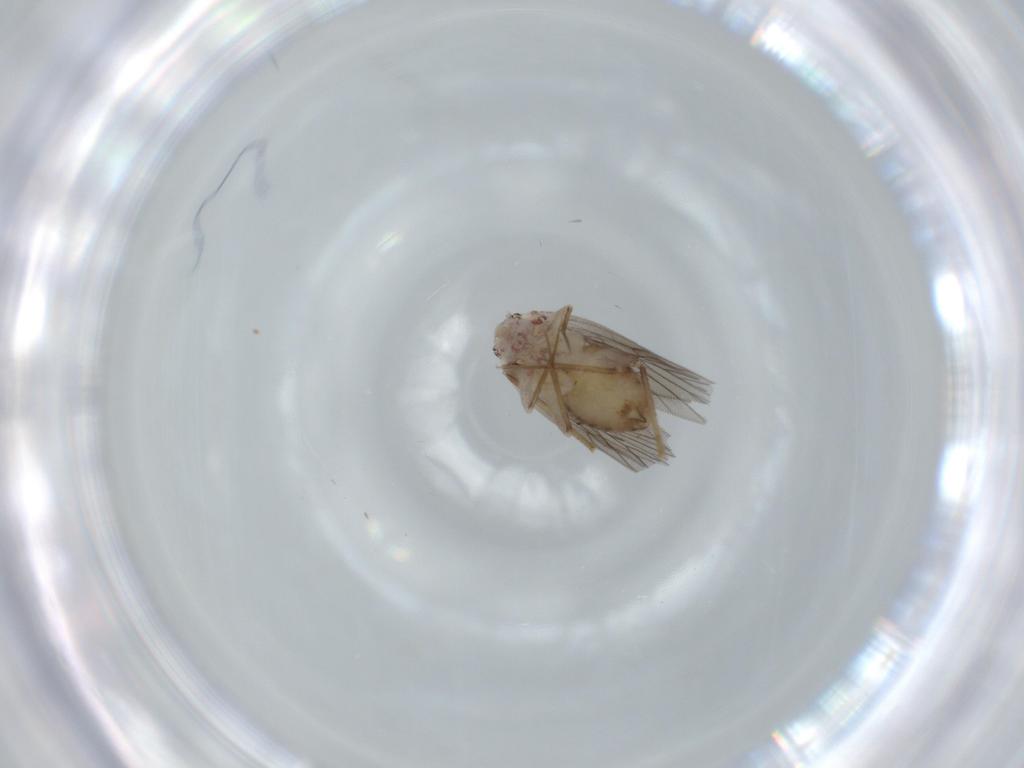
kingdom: Animalia
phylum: Arthropoda
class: Insecta
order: Psocodea
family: Lepidopsocidae
